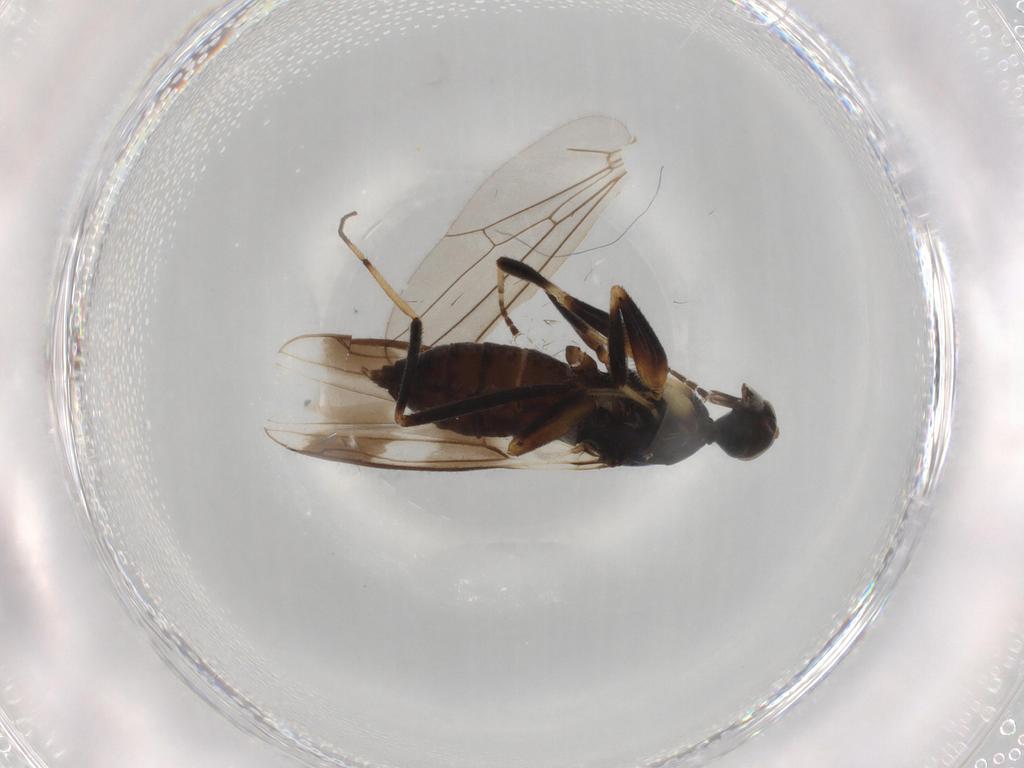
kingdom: Animalia
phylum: Arthropoda
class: Insecta
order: Diptera
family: Hybotidae
